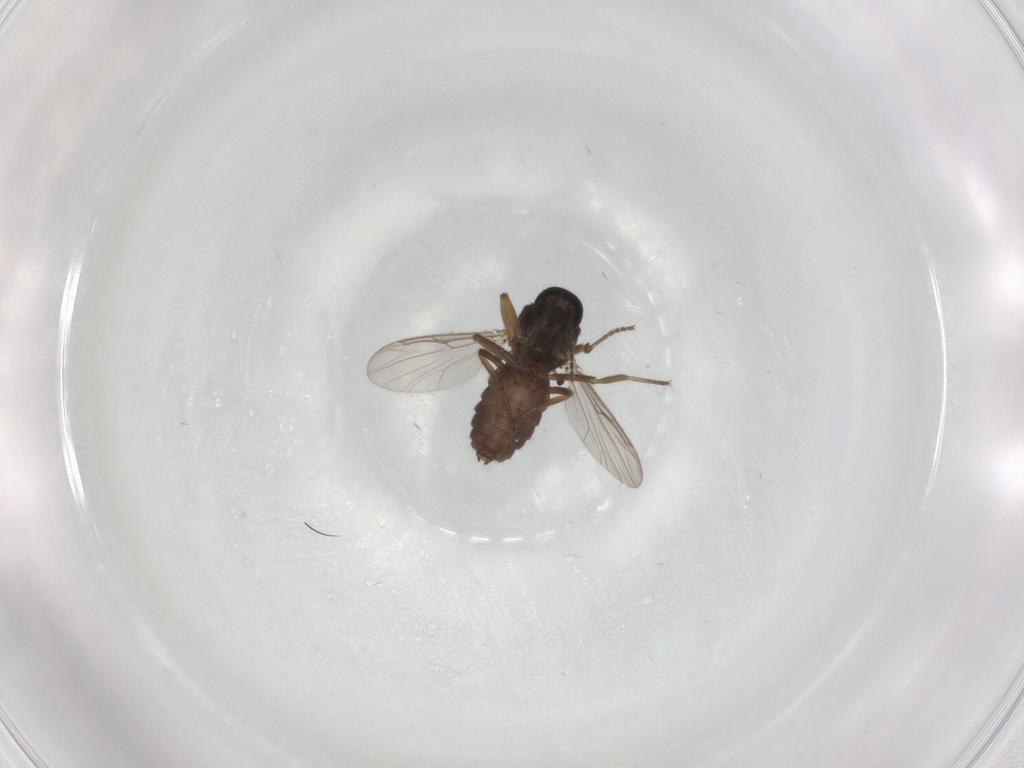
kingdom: Animalia
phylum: Arthropoda
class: Insecta
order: Diptera
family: Ceratopogonidae
